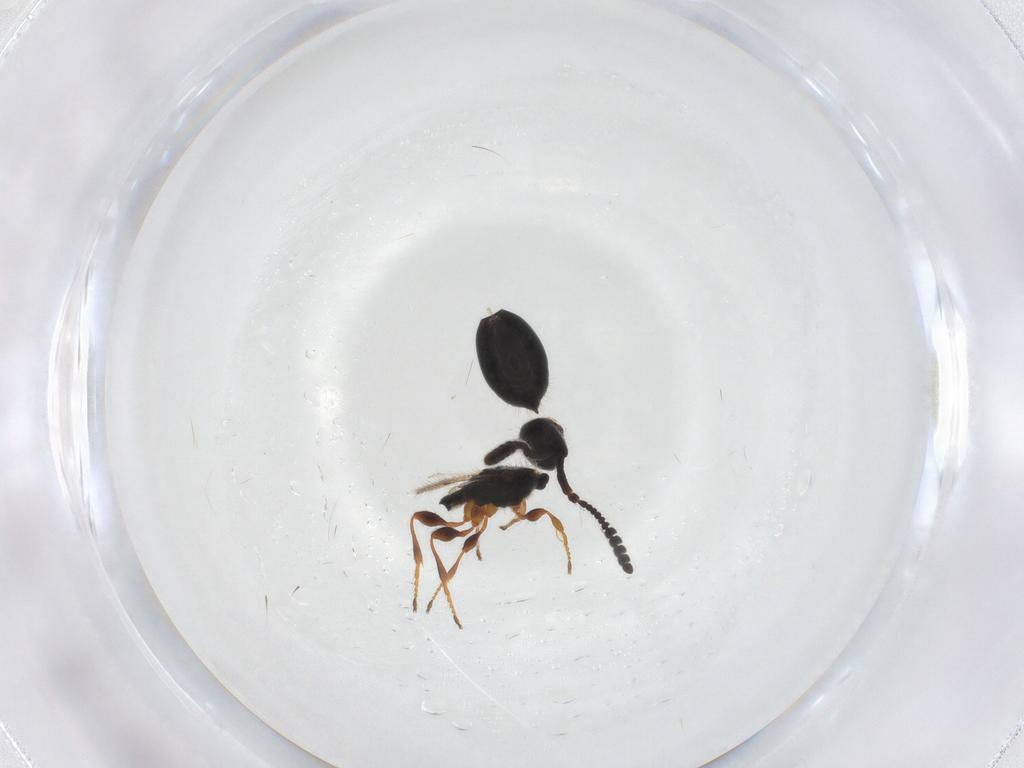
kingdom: Animalia
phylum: Arthropoda
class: Insecta
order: Hymenoptera
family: Diapriidae
